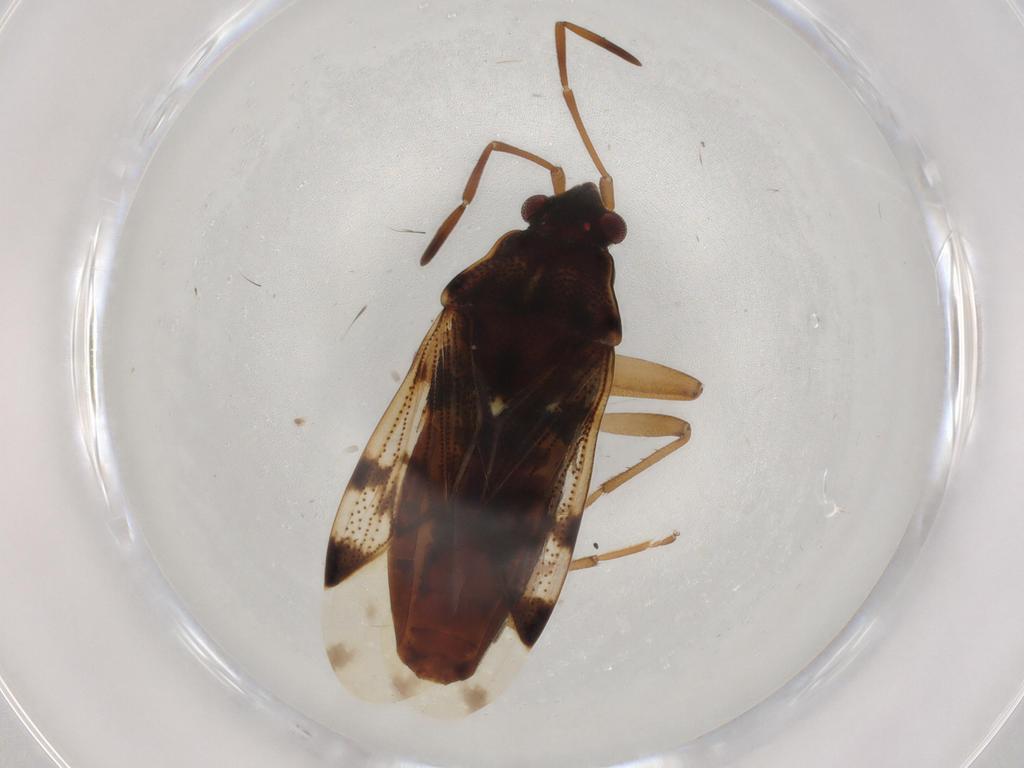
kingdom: Animalia
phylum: Arthropoda
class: Insecta
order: Hemiptera
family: Rhyparochromidae
